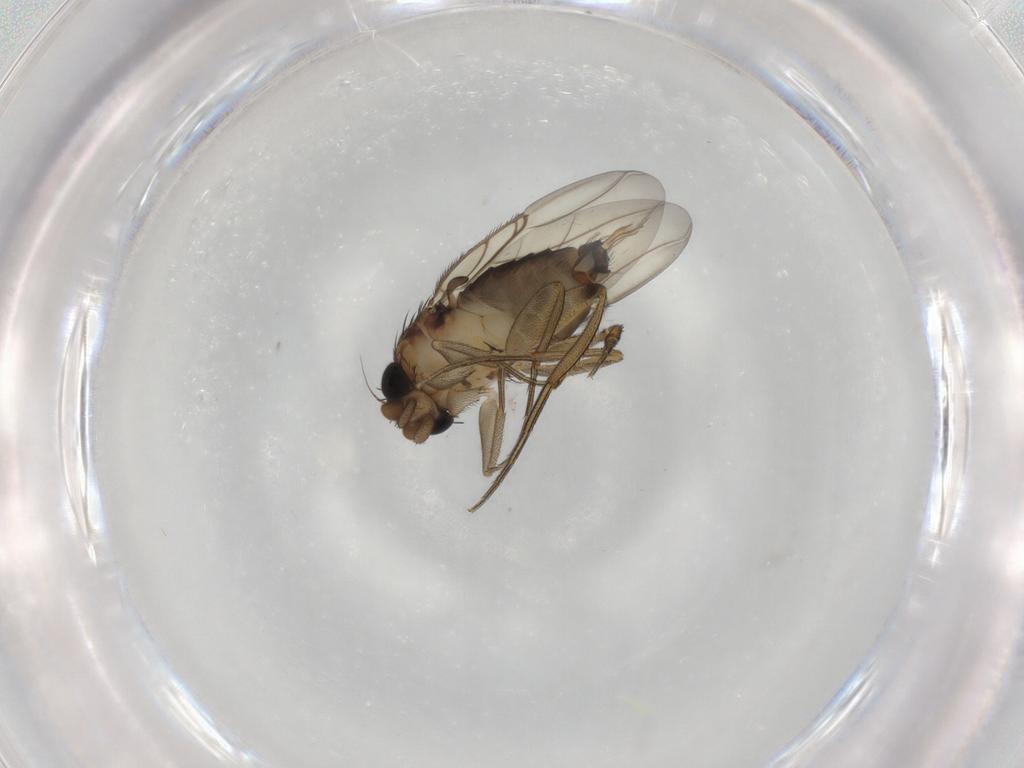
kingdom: Animalia
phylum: Arthropoda
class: Insecta
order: Diptera
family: Phoridae
